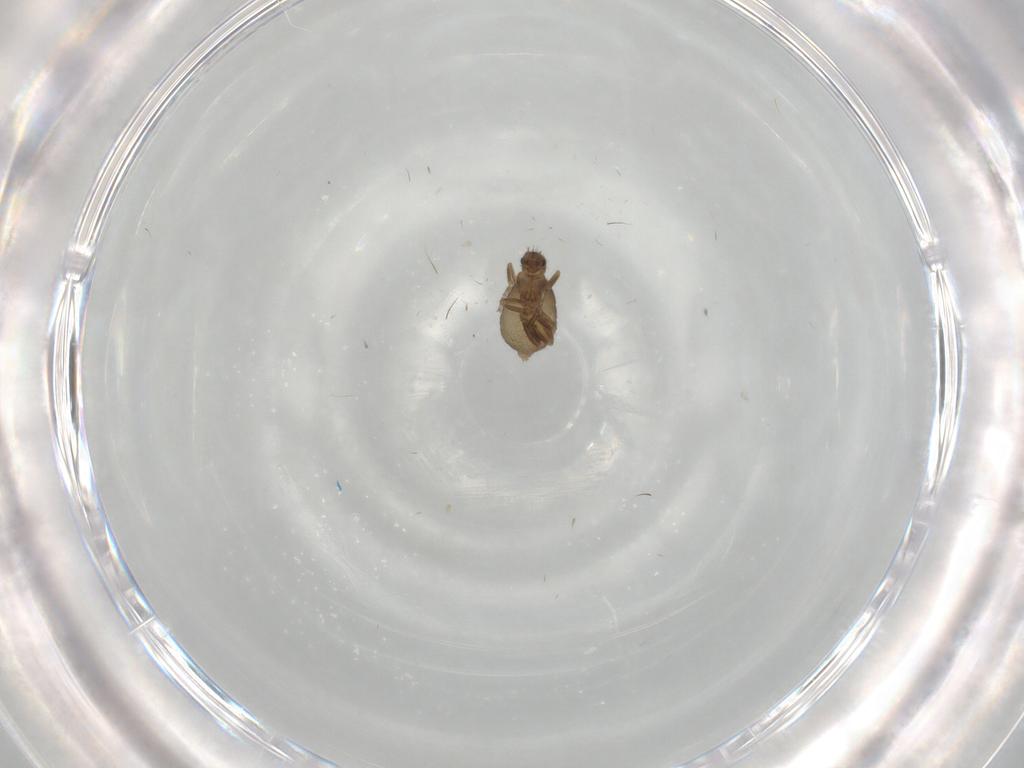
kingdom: Animalia
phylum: Arthropoda
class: Insecta
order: Diptera
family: Phoridae
